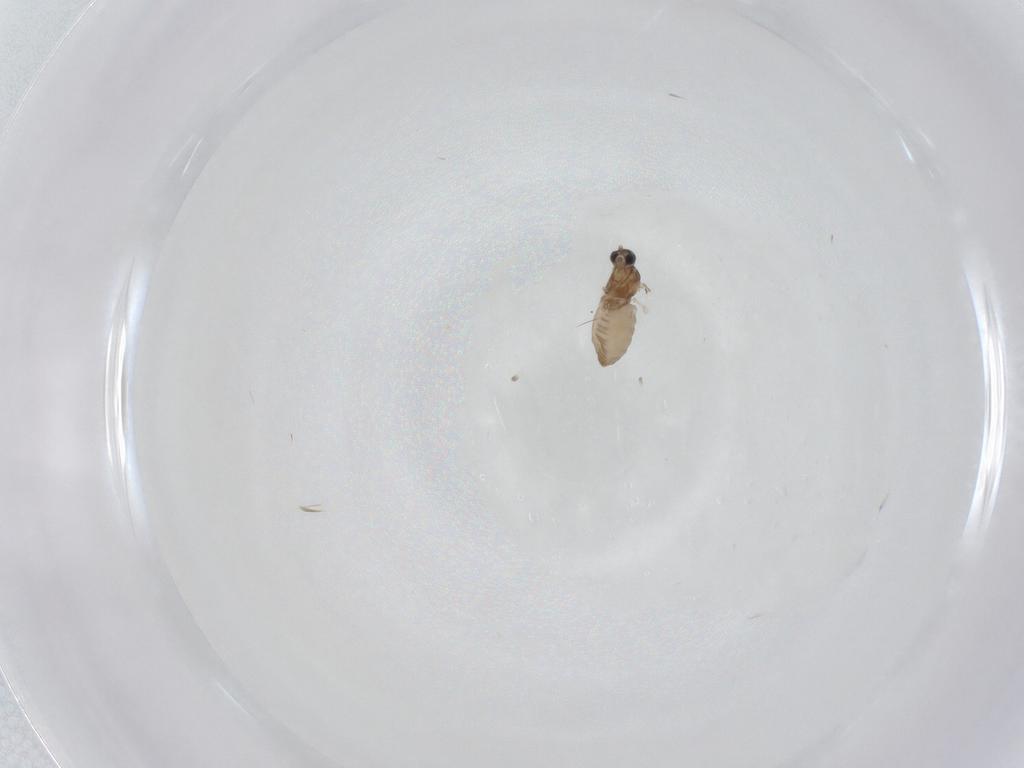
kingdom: Animalia
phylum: Arthropoda
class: Insecta
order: Diptera
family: Cecidomyiidae
